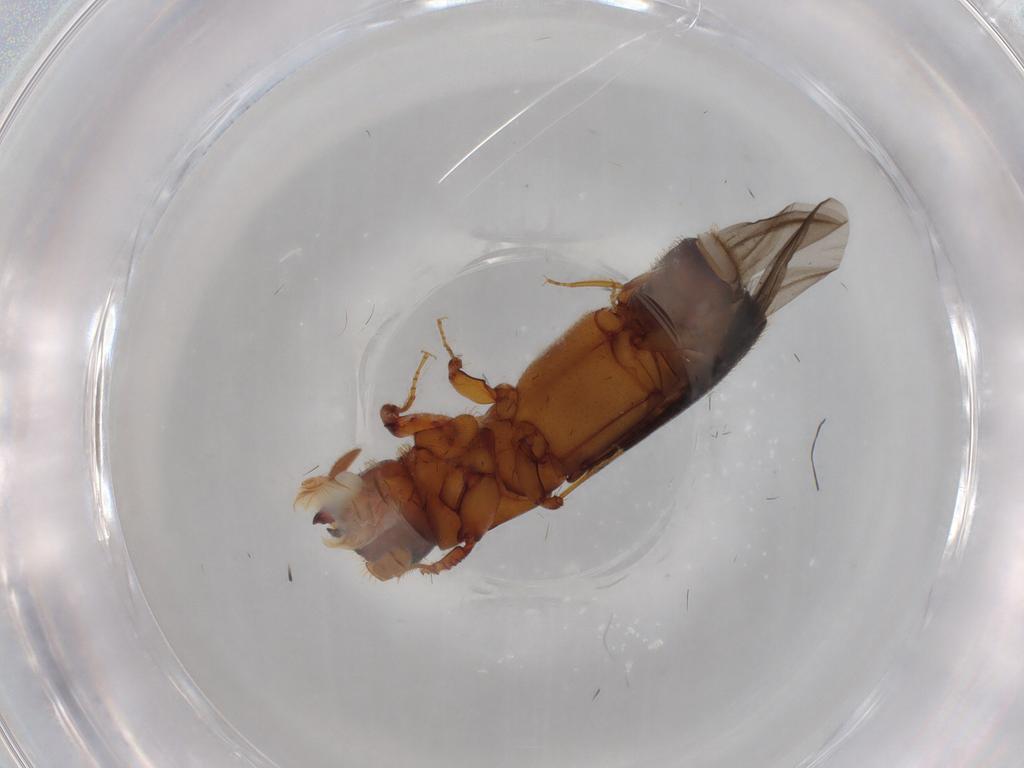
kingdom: Animalia
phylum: Arthropoda
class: Insecta
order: Coleoptera
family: Curculionidae
